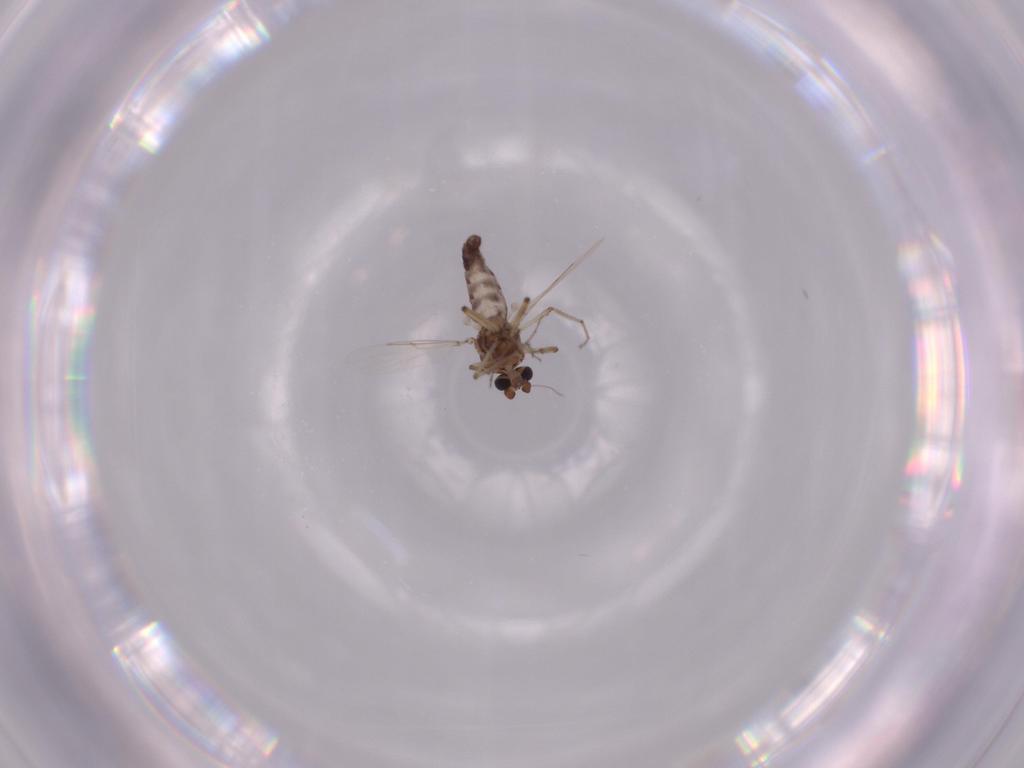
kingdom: Animalia
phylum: Arthropoda
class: Insecta
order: Diptera
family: Ceratopogonidae
